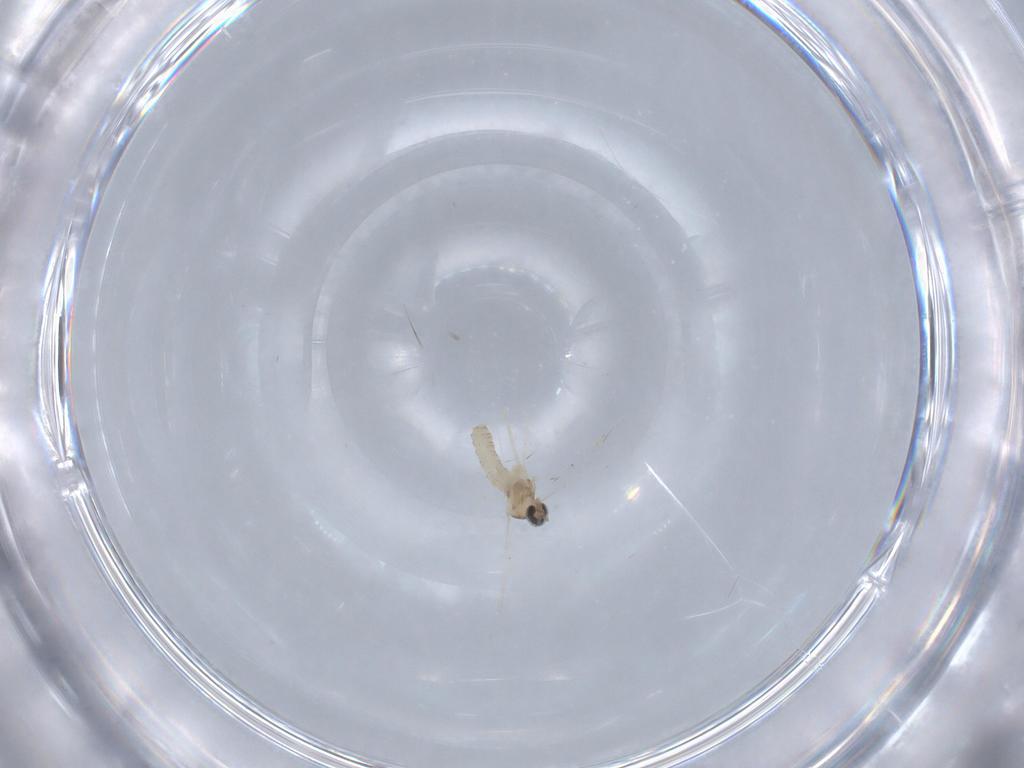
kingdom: Animalia
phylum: Arthropoda
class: Insecta
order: Diptera
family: Cecidomyiidae
